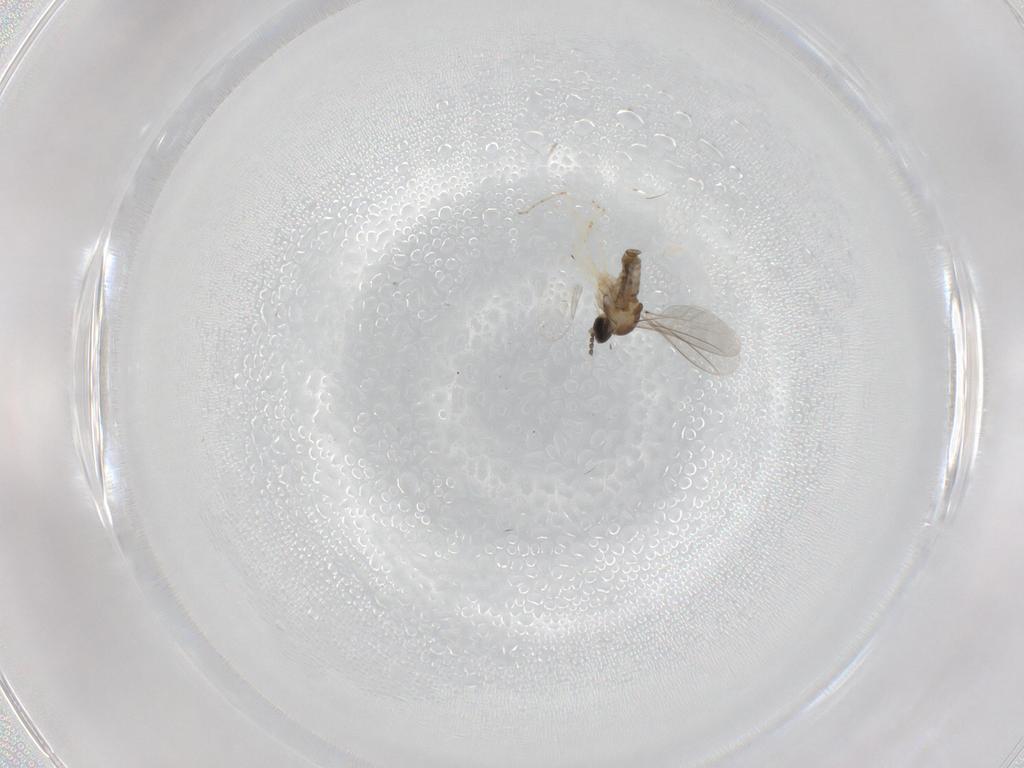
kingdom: Animalia
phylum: Arthropoda
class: Insecta
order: Diptera
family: Cecidomyiidae
